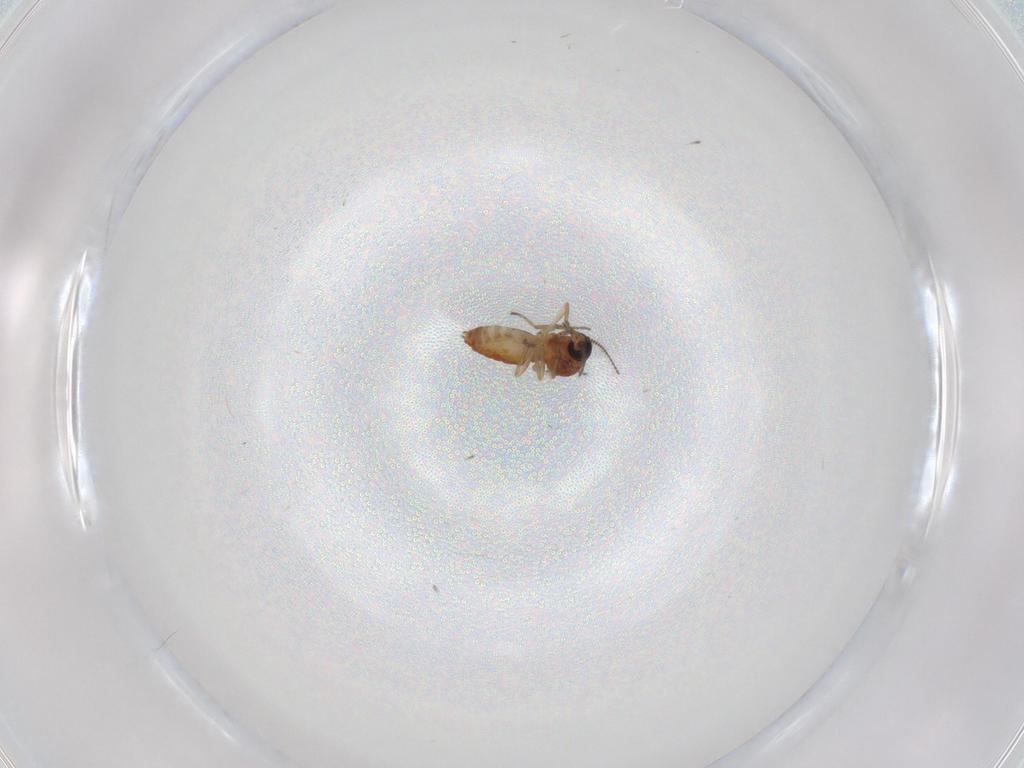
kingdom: Animalia
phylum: Arthropoda
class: Insecta
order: Diptera
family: Ceratopogonidae
